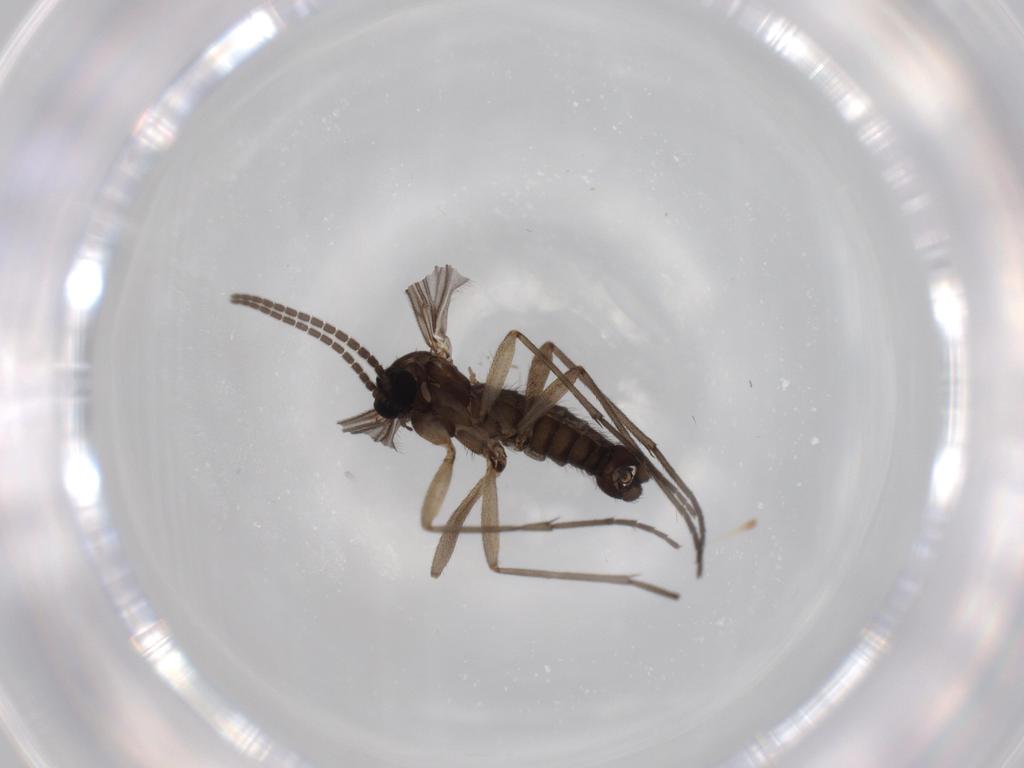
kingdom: Animalia
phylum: Arthropoda
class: Insecta
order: Diptera
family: Sciaridae
